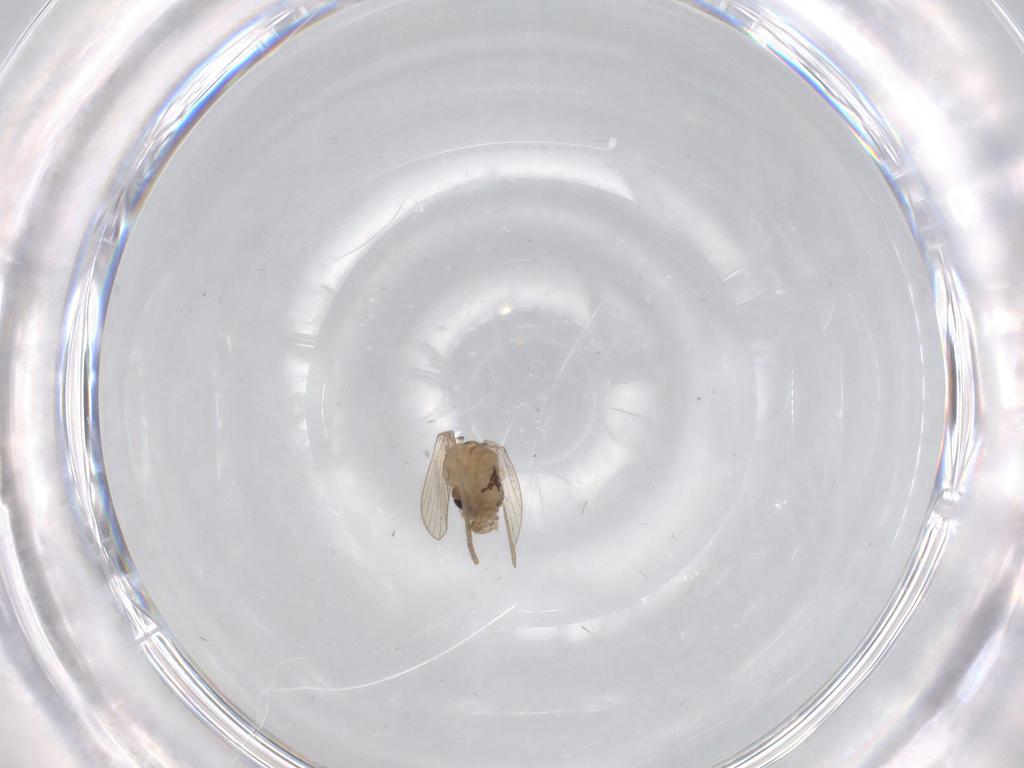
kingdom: Animalia
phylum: Arthropoda
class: Insecta
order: Diptera
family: Psychodidae
